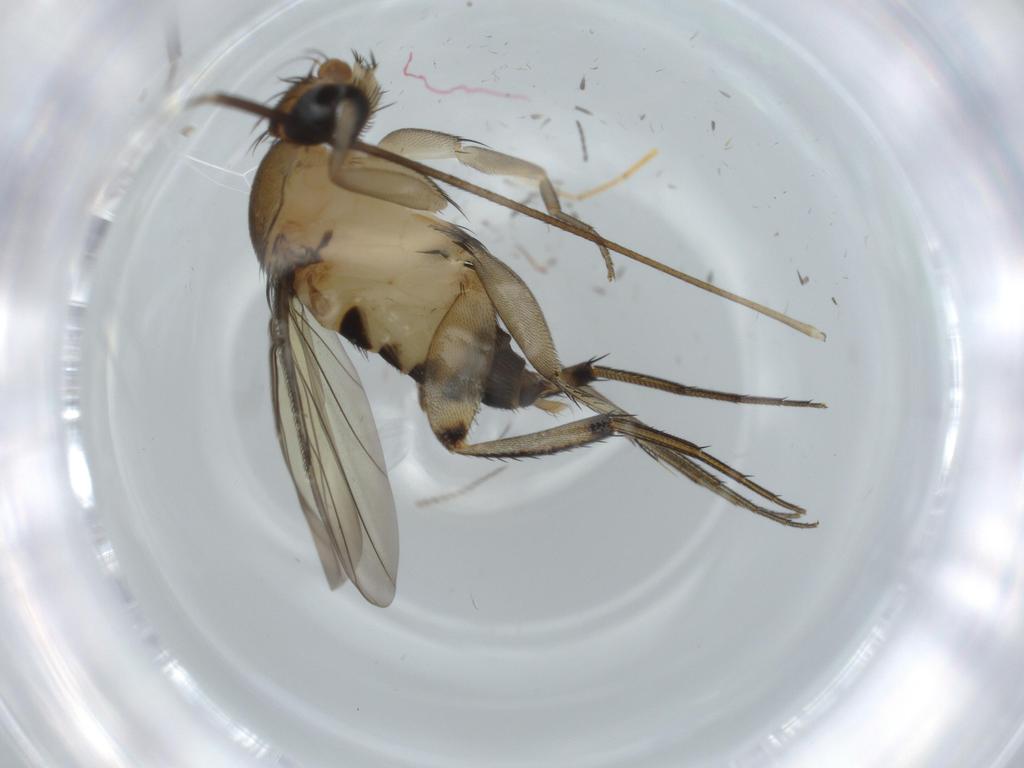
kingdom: Animalia
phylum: Arthropoda
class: Insecta
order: Diptera
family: Phoridae
